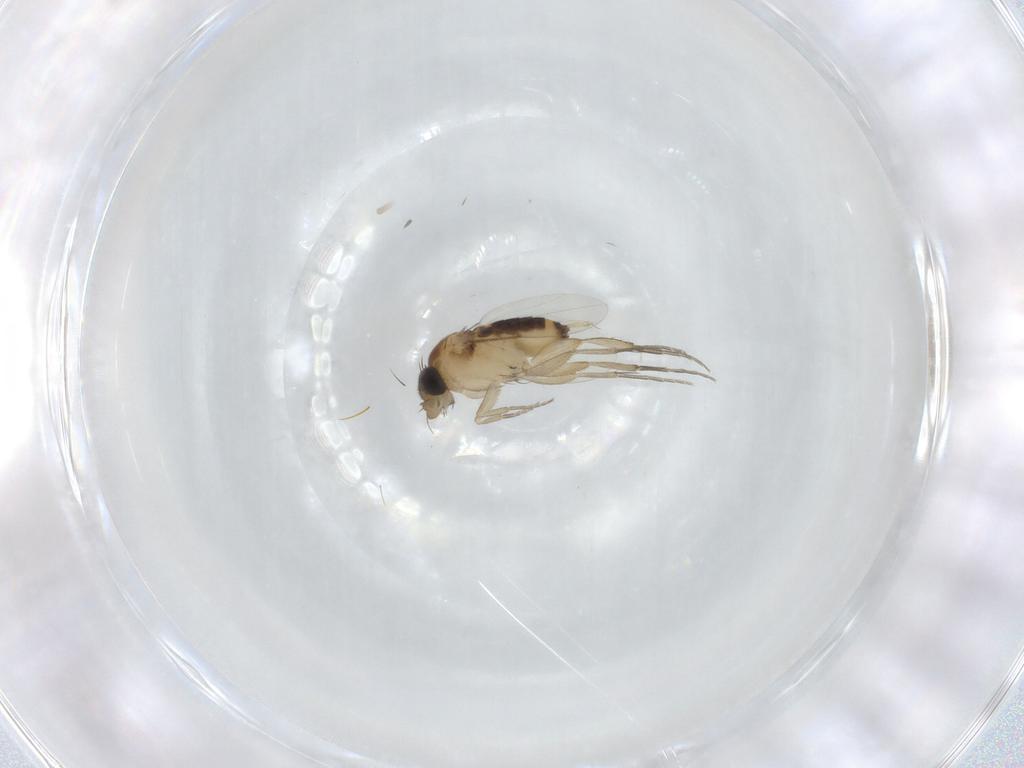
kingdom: Animalia
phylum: Arthropoda
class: Insecta
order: Diptera
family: Phoridae
